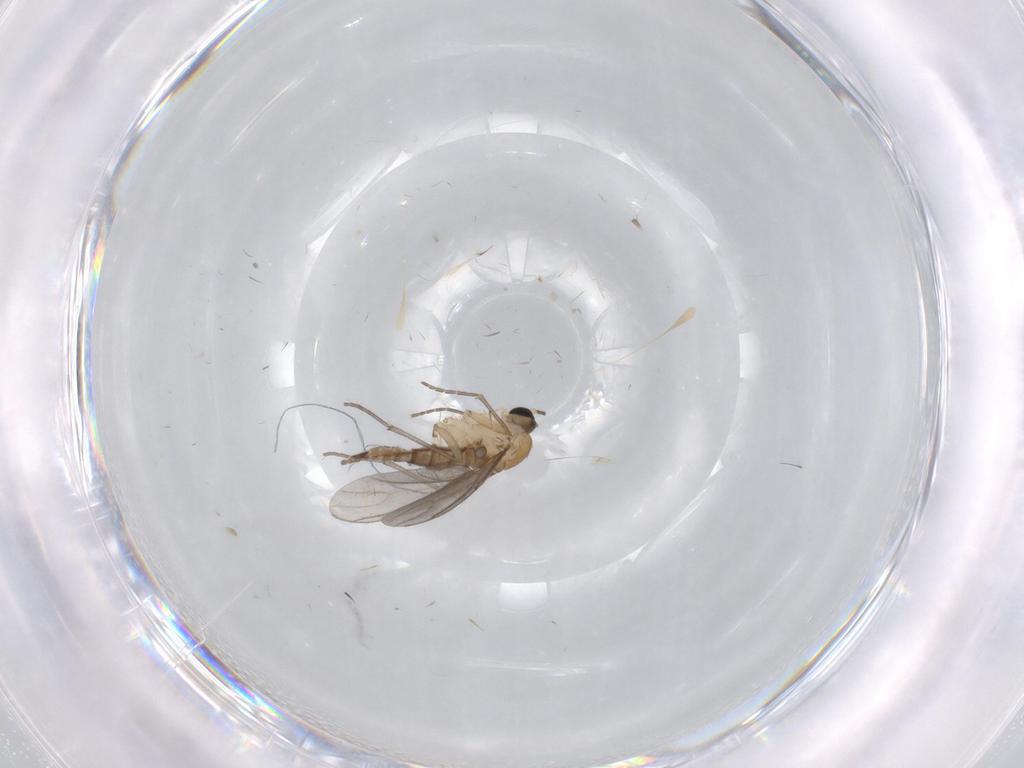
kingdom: Animalia
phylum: Arthropoda
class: Insecta
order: Diptera
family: Sciaridae
